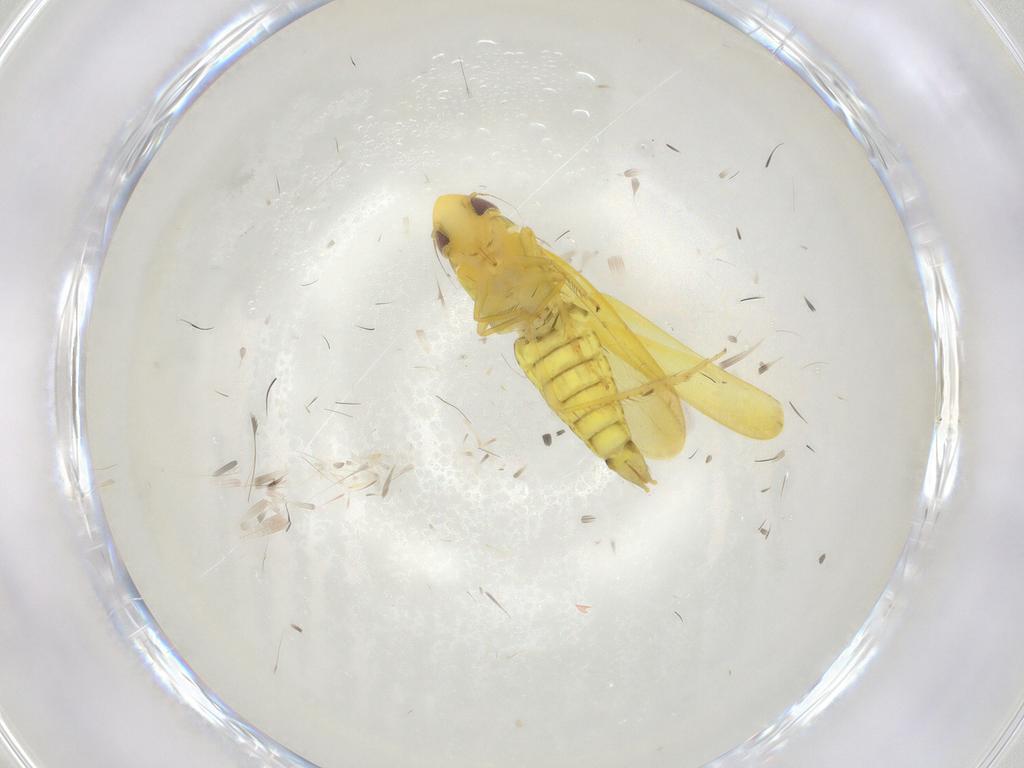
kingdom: Animalia
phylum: Arthropoda
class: Insecta
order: Hemiptera
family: Cicadellidae
